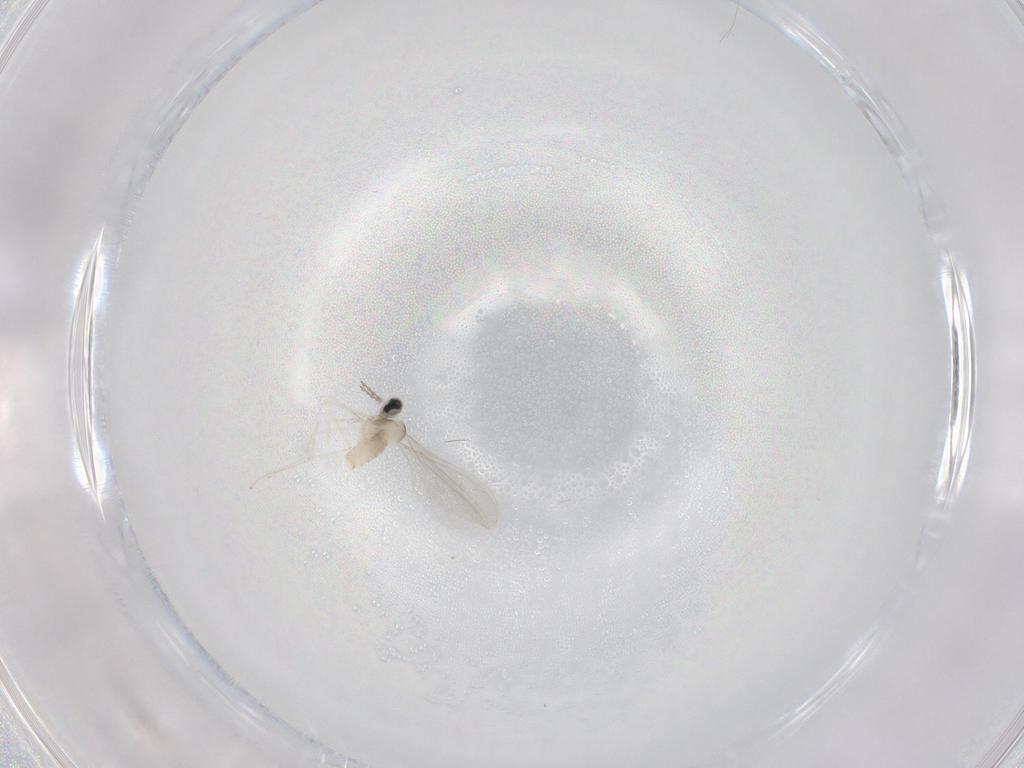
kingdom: Animalia
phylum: Arthropoda
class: Insecta
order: Diptera
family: Cecidomyiidae
